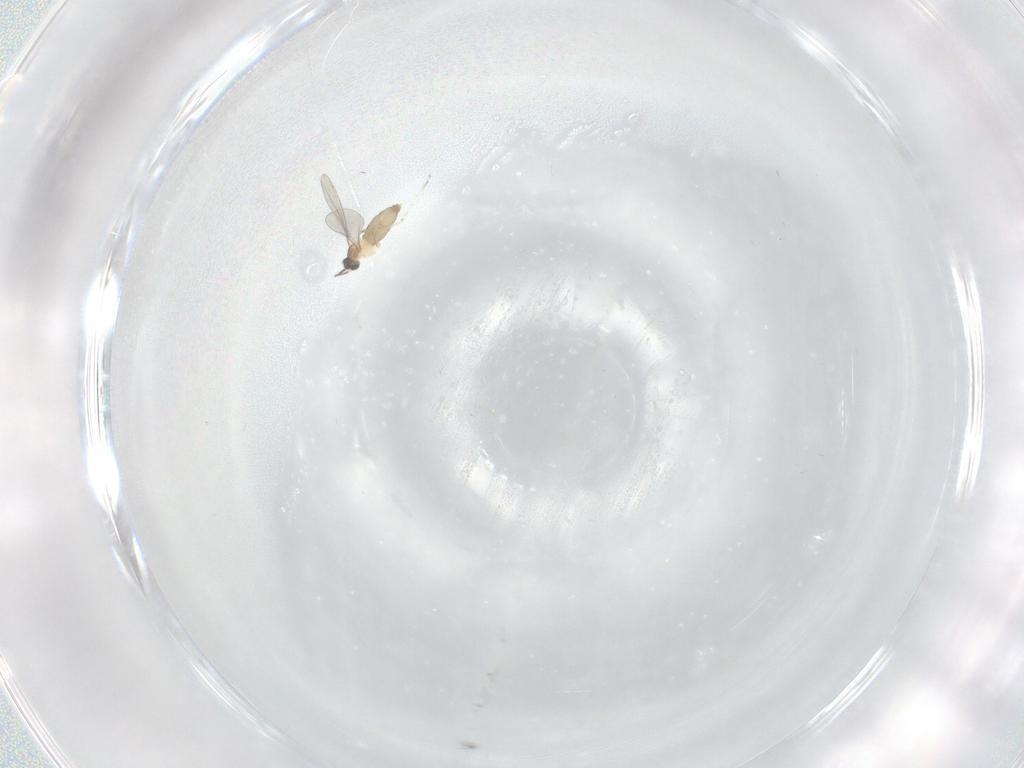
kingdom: Animalia
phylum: Arthropoda
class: Insecta
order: Diptera
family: Cecidomyiidae
